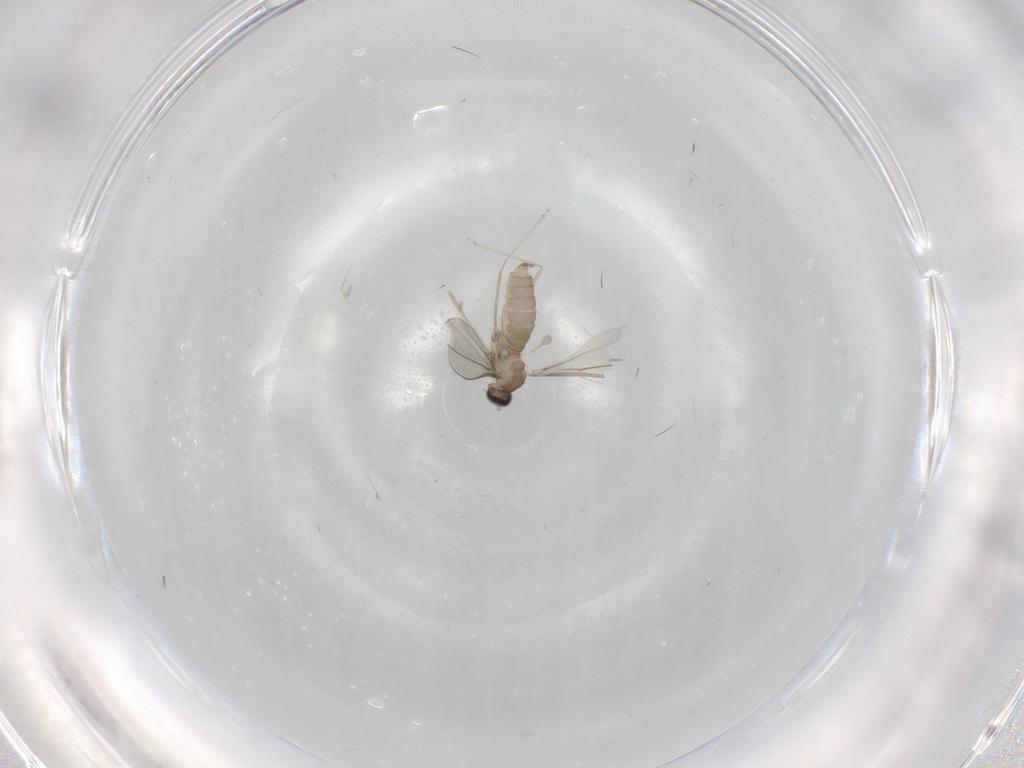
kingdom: Animalia
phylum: Arthropoda
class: Insecta
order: Diptera
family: Cecidomyiidae
